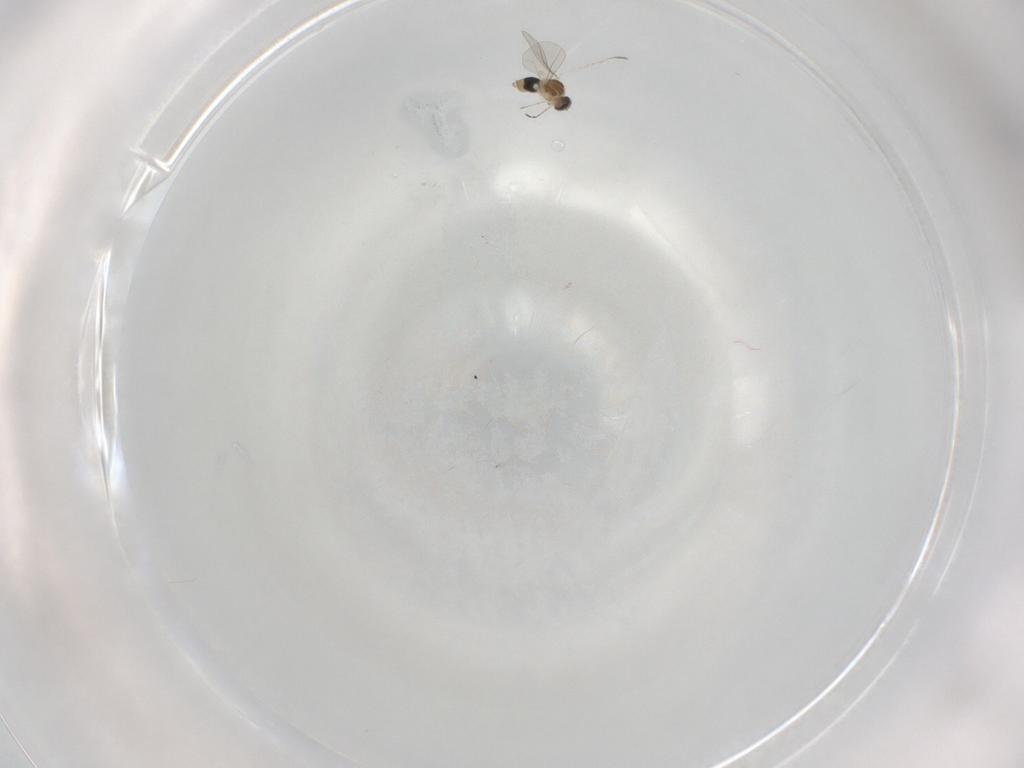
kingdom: Animalia
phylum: Arthropoda
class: Insecta
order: Diptera
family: Cecidomyiidae
